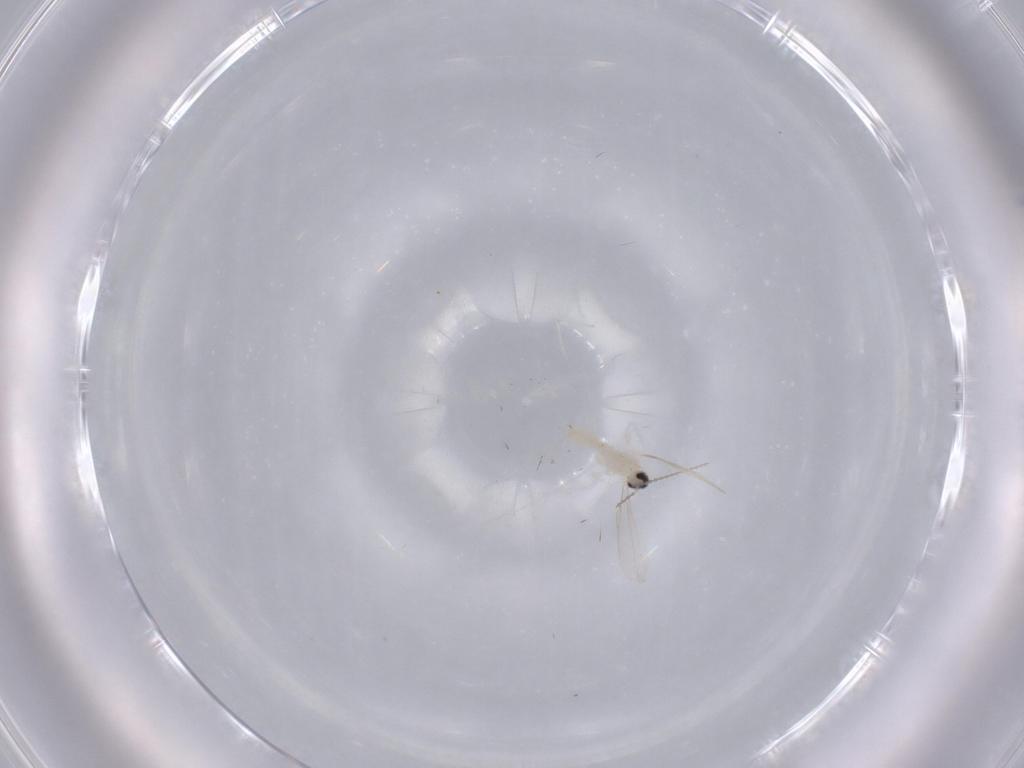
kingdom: Animalia
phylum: Arthropoda
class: Insecta
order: Diptera
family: Cecidomyiidae
